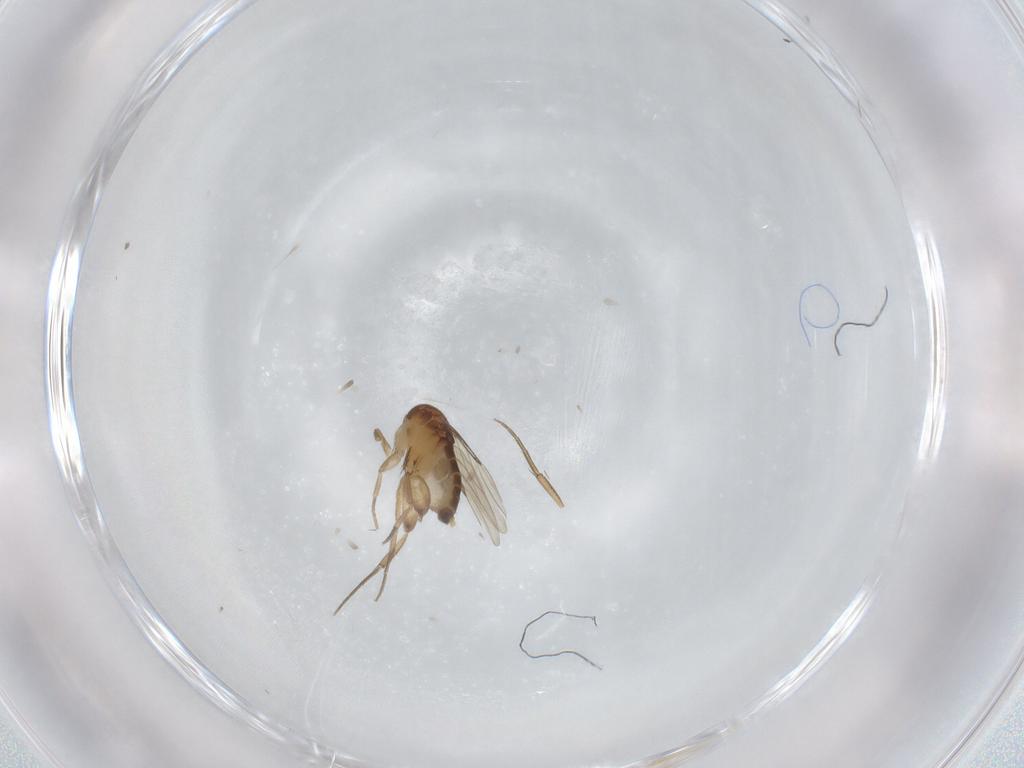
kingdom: Animalia
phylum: Arthropoda
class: Insecta
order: Diptera
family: Phoridae
